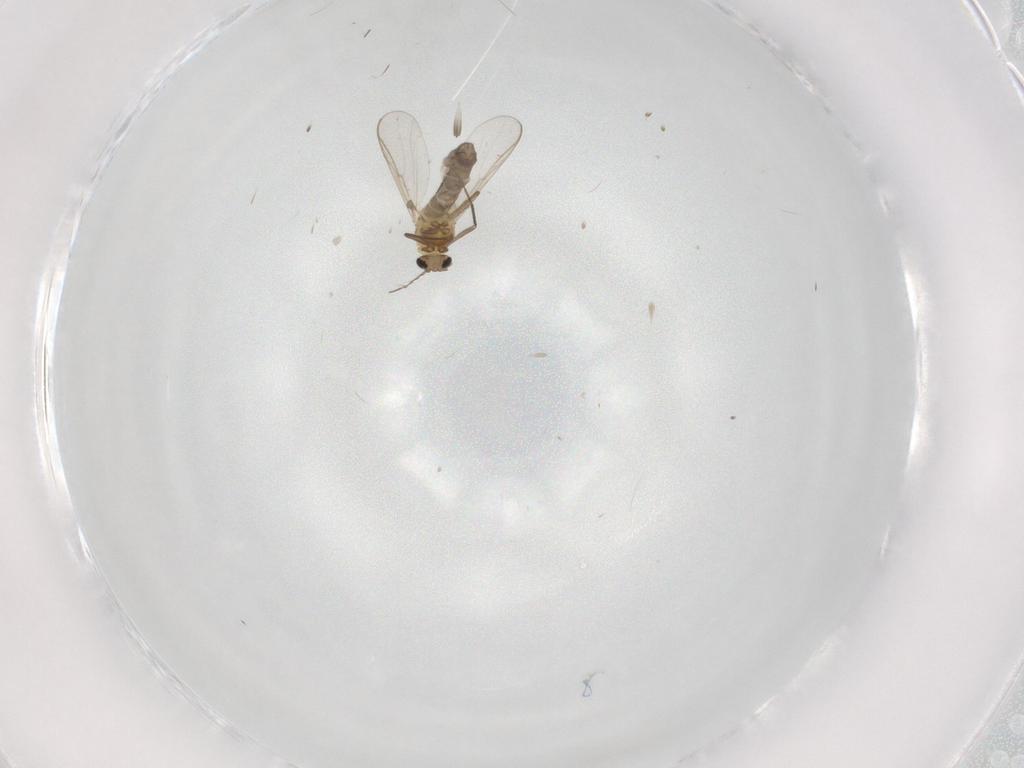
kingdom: Animalia
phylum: Arthropoda
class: Insecta
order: Diptera
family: Chironomidae
